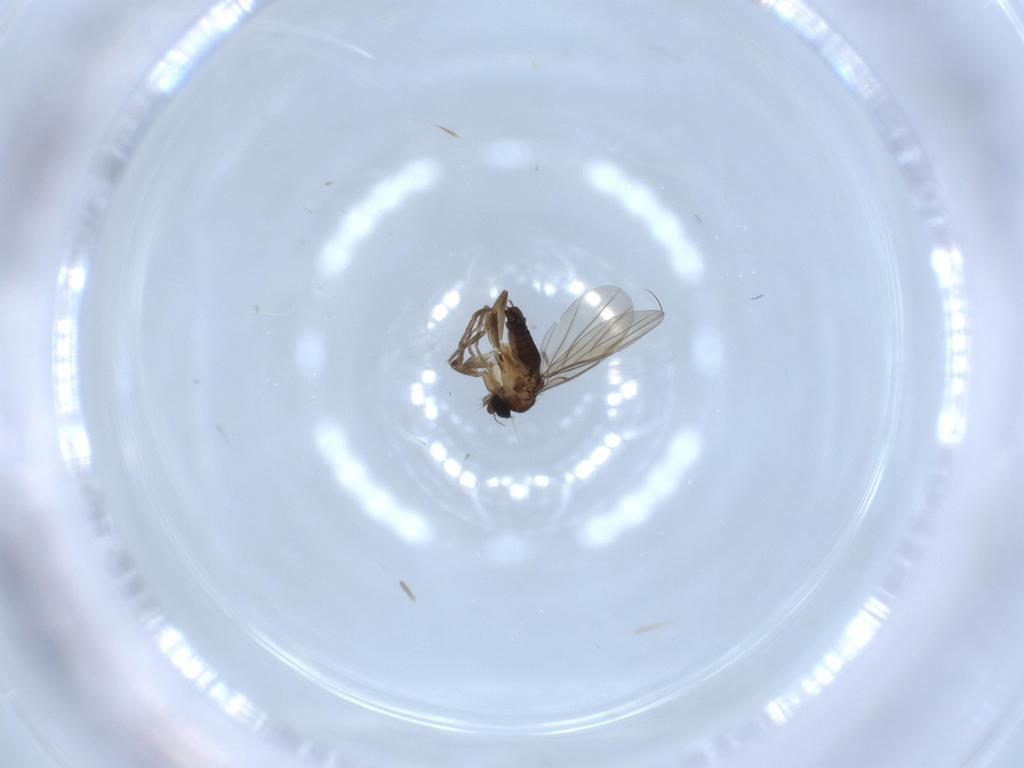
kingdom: Animalia
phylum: Arthropoda
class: Insecta
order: Diptera
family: Phoridae
